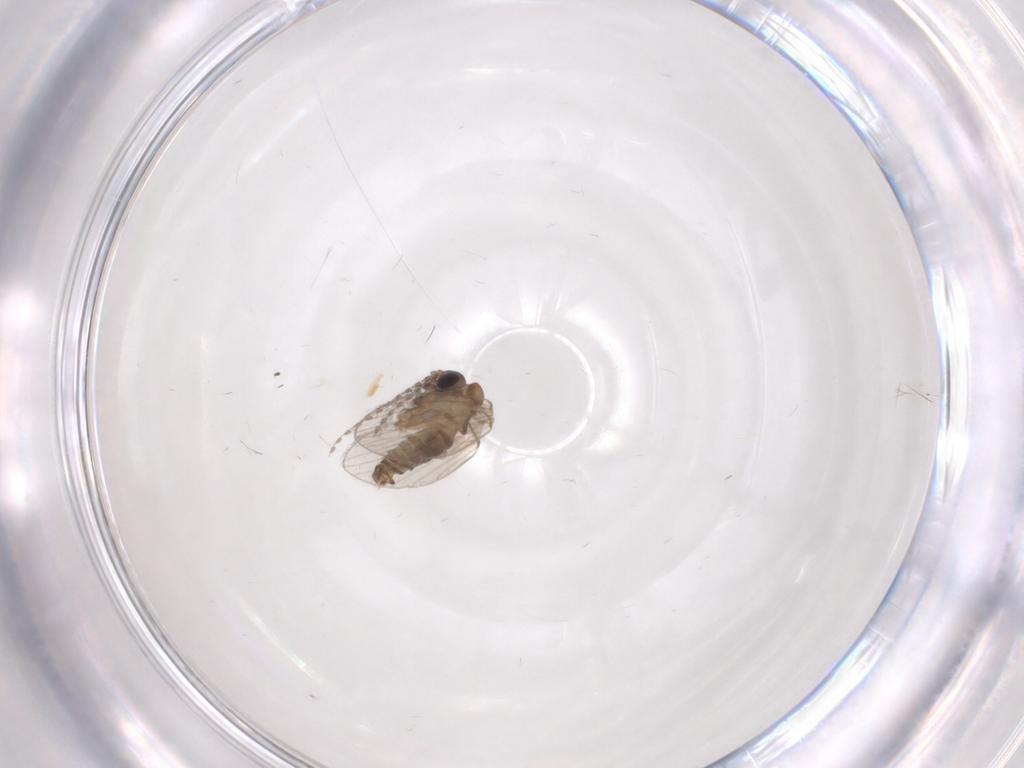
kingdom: Animalia
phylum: Arthropoda
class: Insecta
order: Diptera
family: Psychodidae
